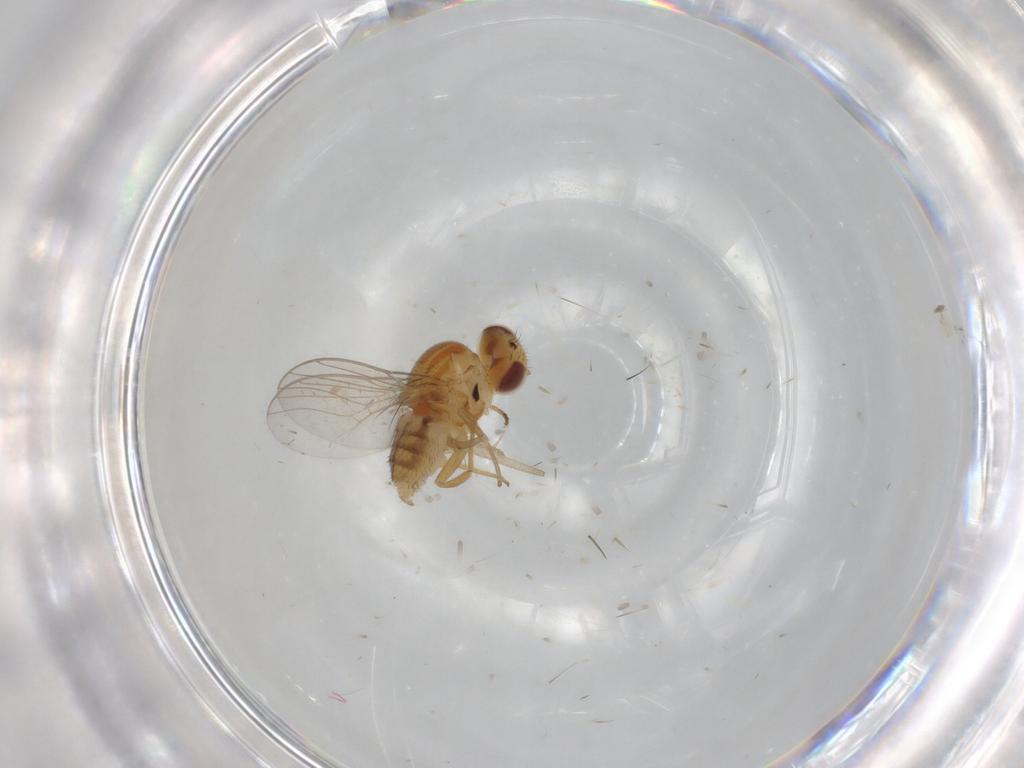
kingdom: Animalia
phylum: Arthropoda
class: Insecta
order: Diptera
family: Chloropidae
